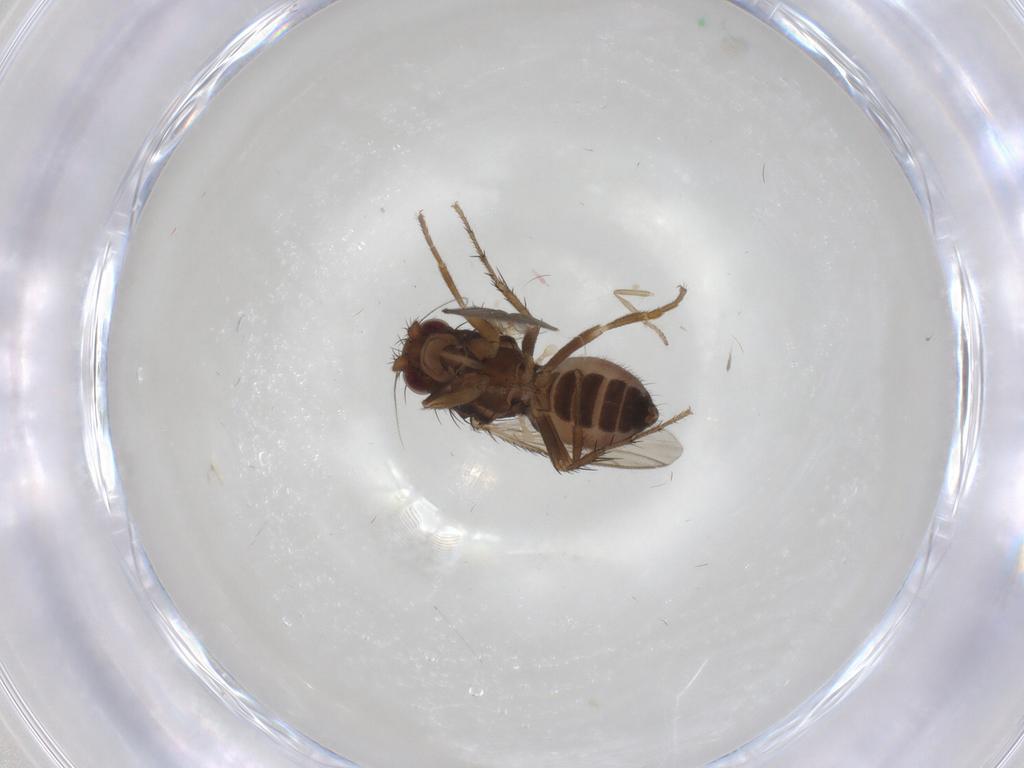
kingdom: Animalia
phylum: Arthropoda
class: Insecta
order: Diptera
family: Sphaeroceridae
